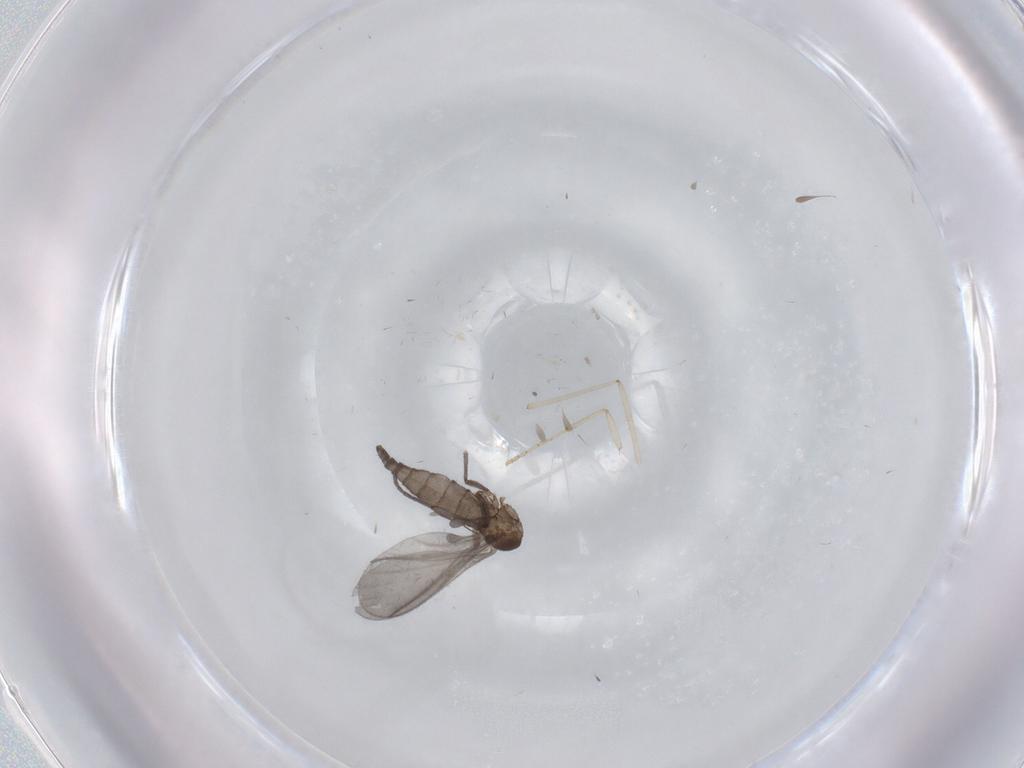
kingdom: Animalia
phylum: Arthropoda
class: Insecta
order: Diptera
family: Sciaridae
